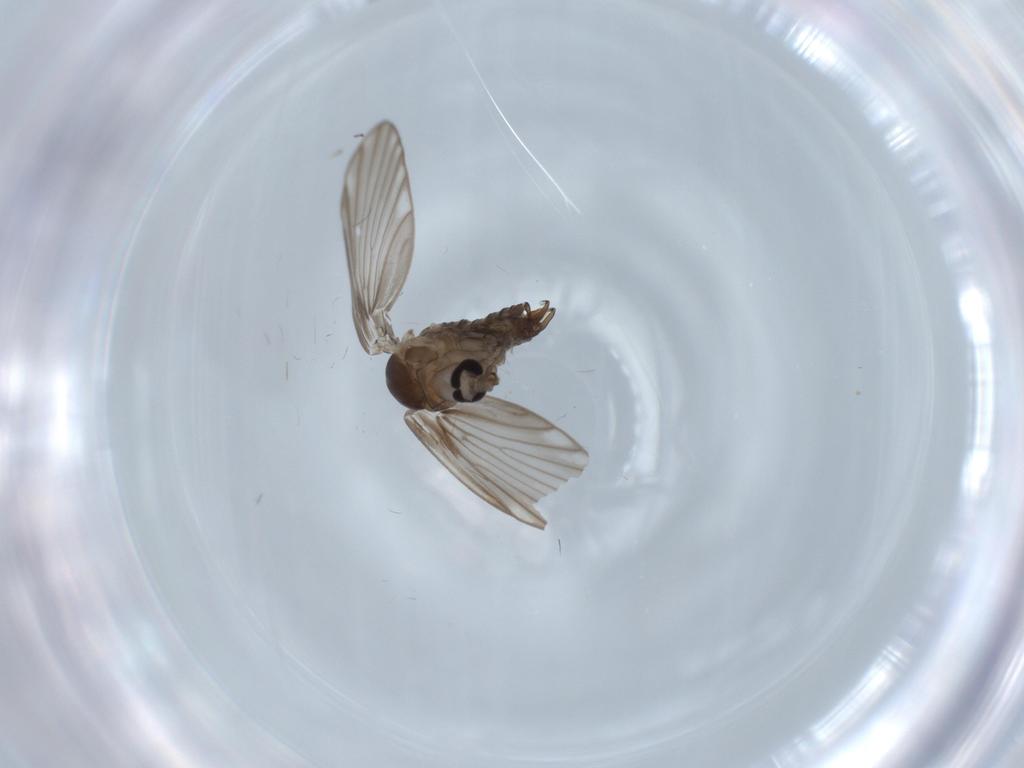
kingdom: Animalia
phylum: Arthropoda
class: Insecta
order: Diptera
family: Psychodidae
